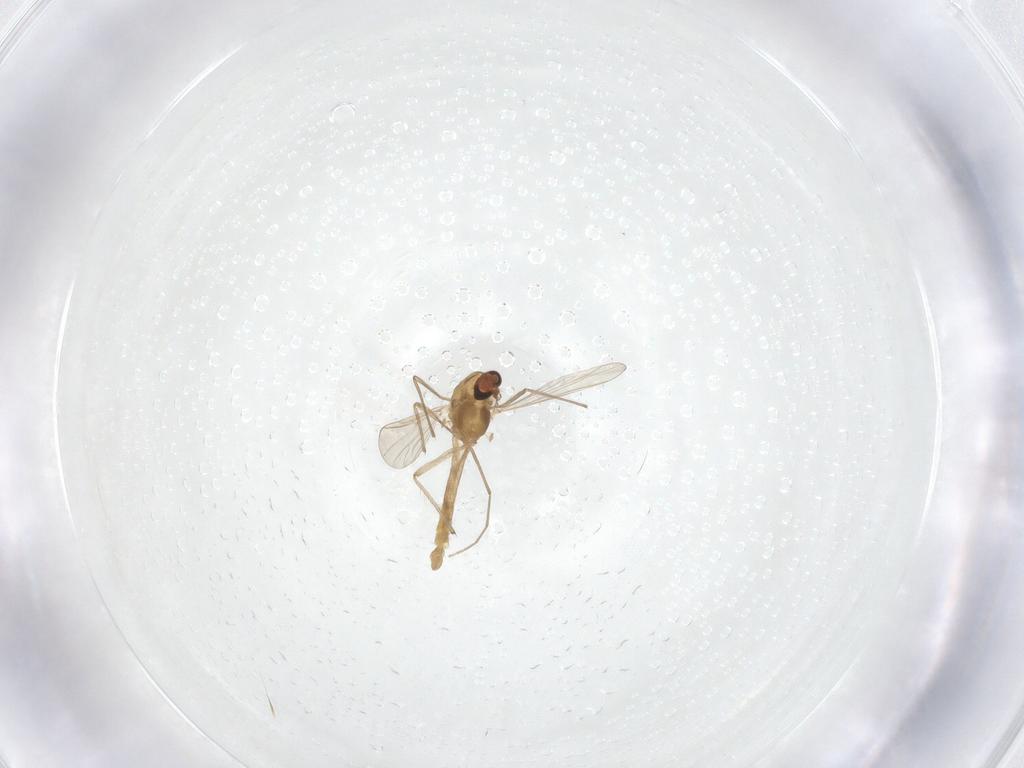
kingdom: Animalia
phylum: Arthropoda
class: Insecta
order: Diptera
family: Chironomidae
